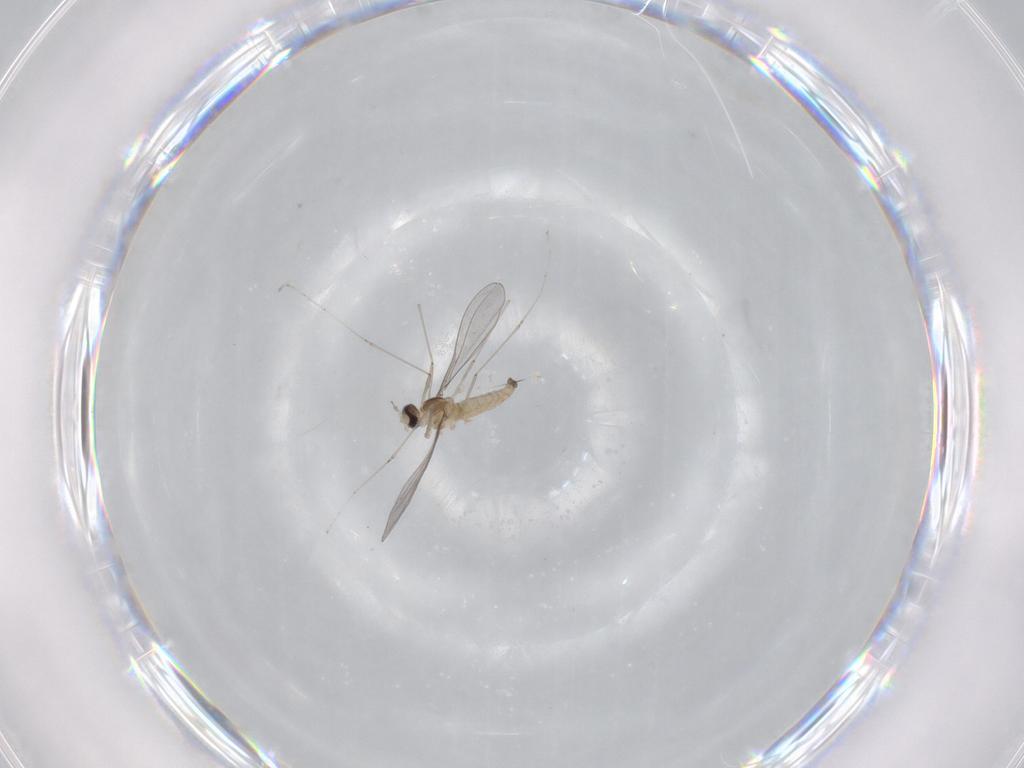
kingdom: Animalia
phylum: Arthropoda
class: Insecta
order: Diptera
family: Cecidomyiidae
